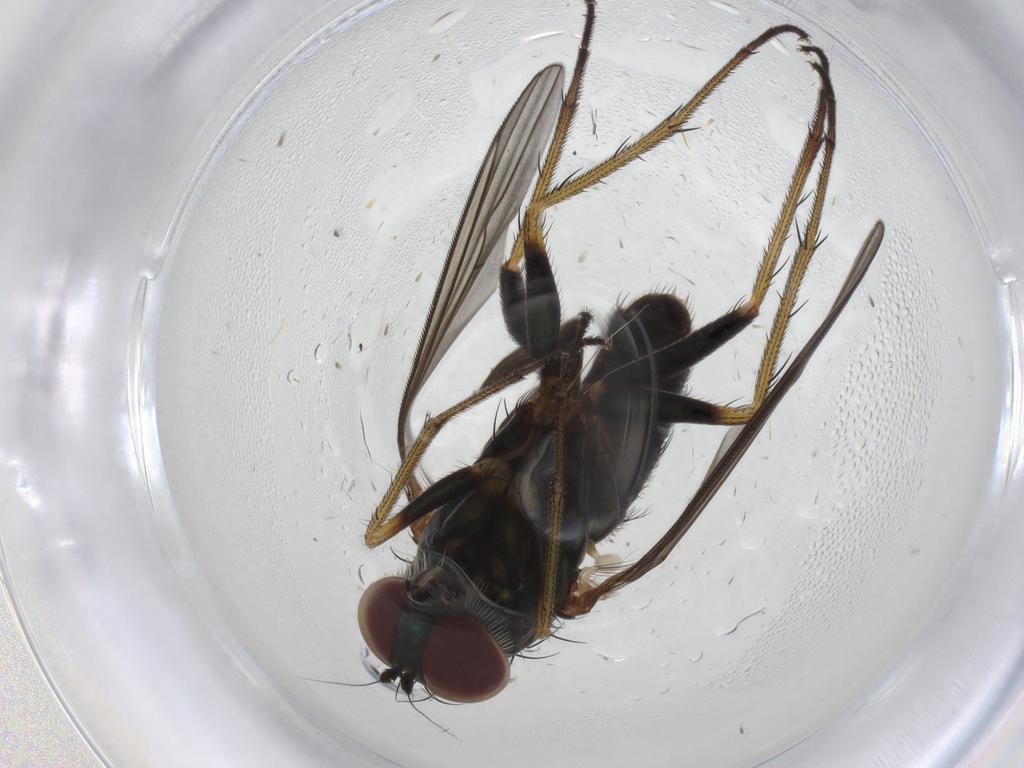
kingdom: Animalia
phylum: Arthropoda
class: Insecta
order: Diptera
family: Dolichopodidae
